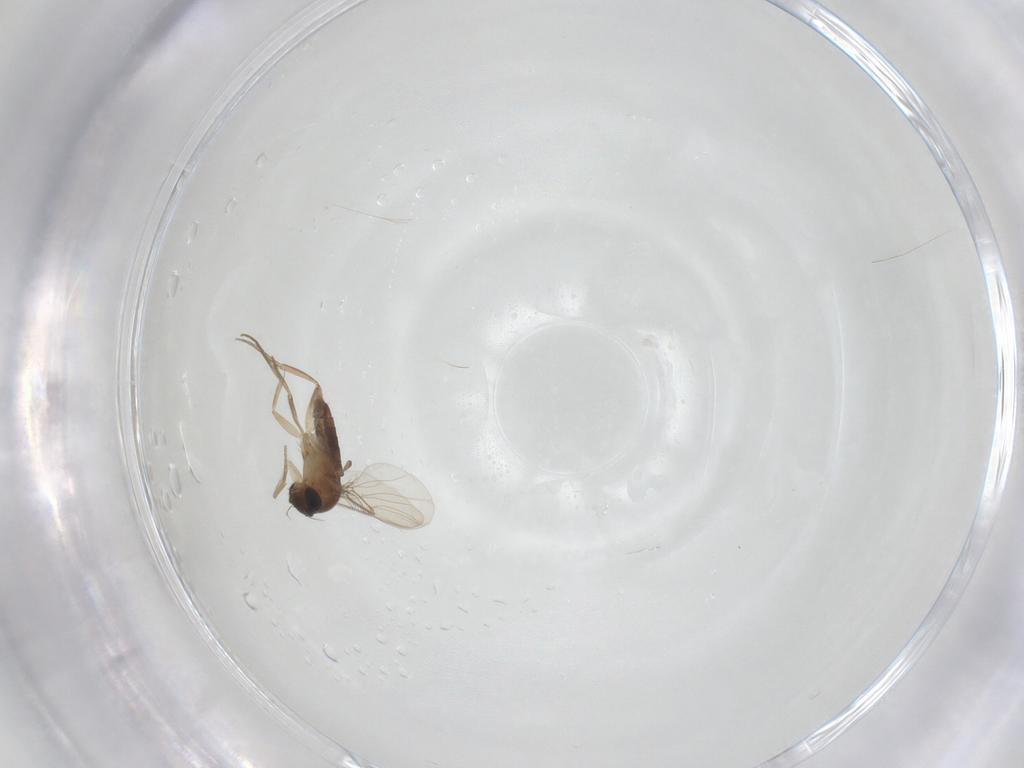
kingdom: Animalia
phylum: Arthropoda
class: Insecta
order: Diptera
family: Phoridae
